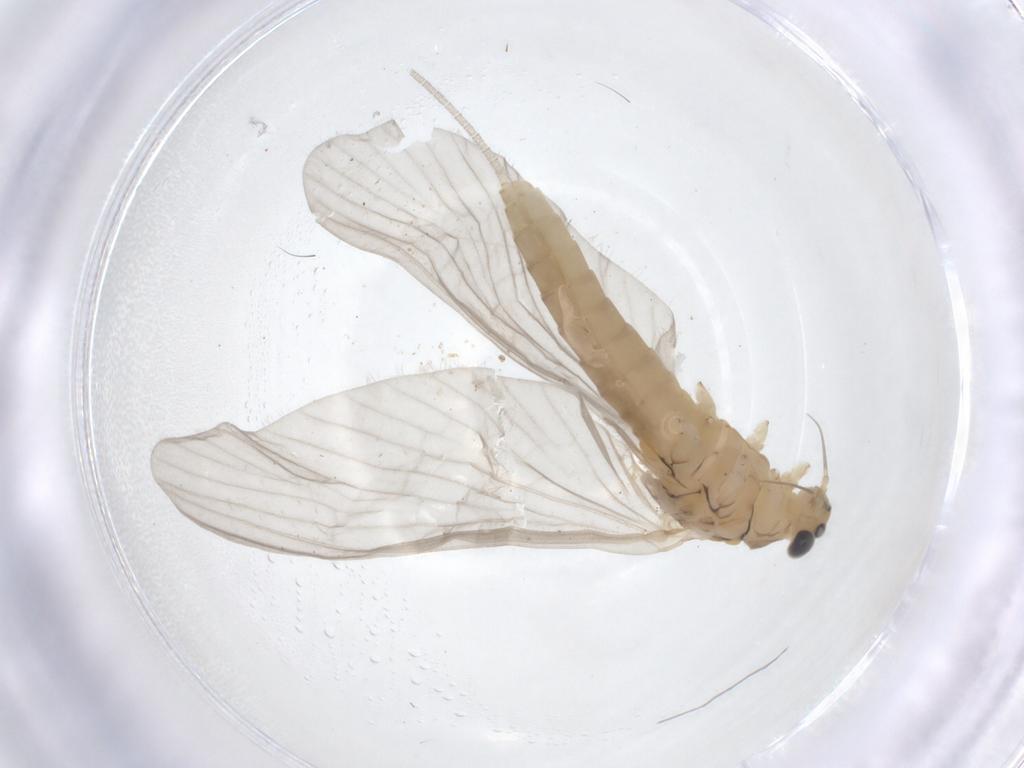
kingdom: Animalia
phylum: Arthropoda
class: Insecta
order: Ephemeroptera
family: Baetidae
